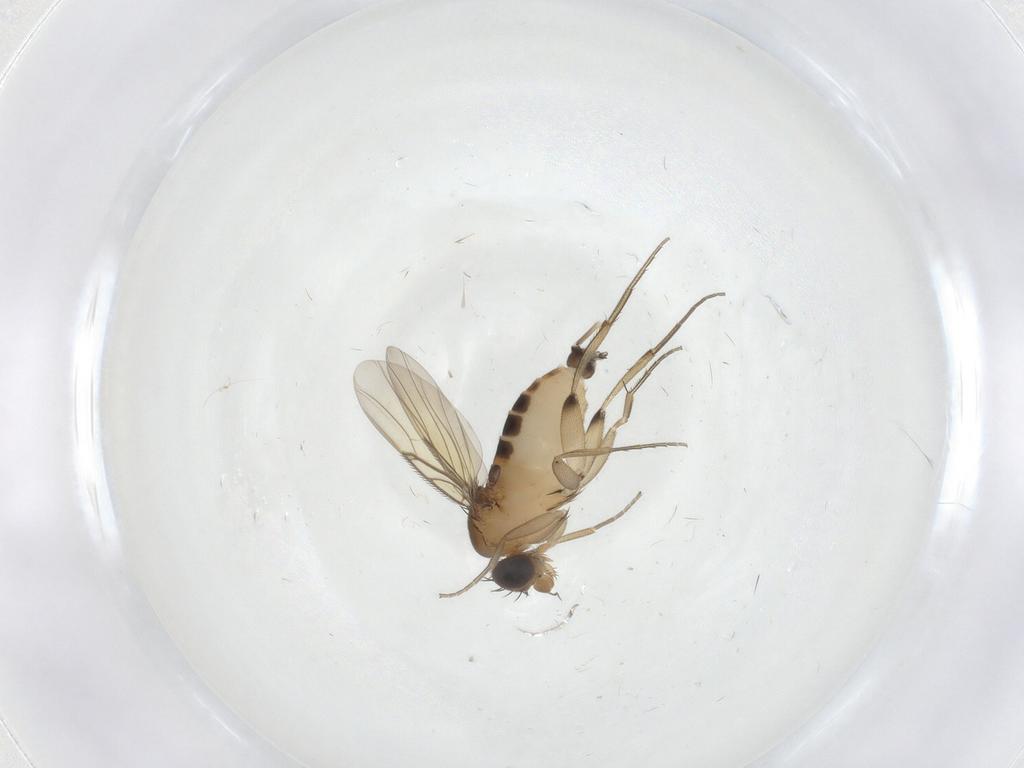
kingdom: Animalia
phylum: Arthropoda
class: Insecta
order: Diptera
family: Phoridae
